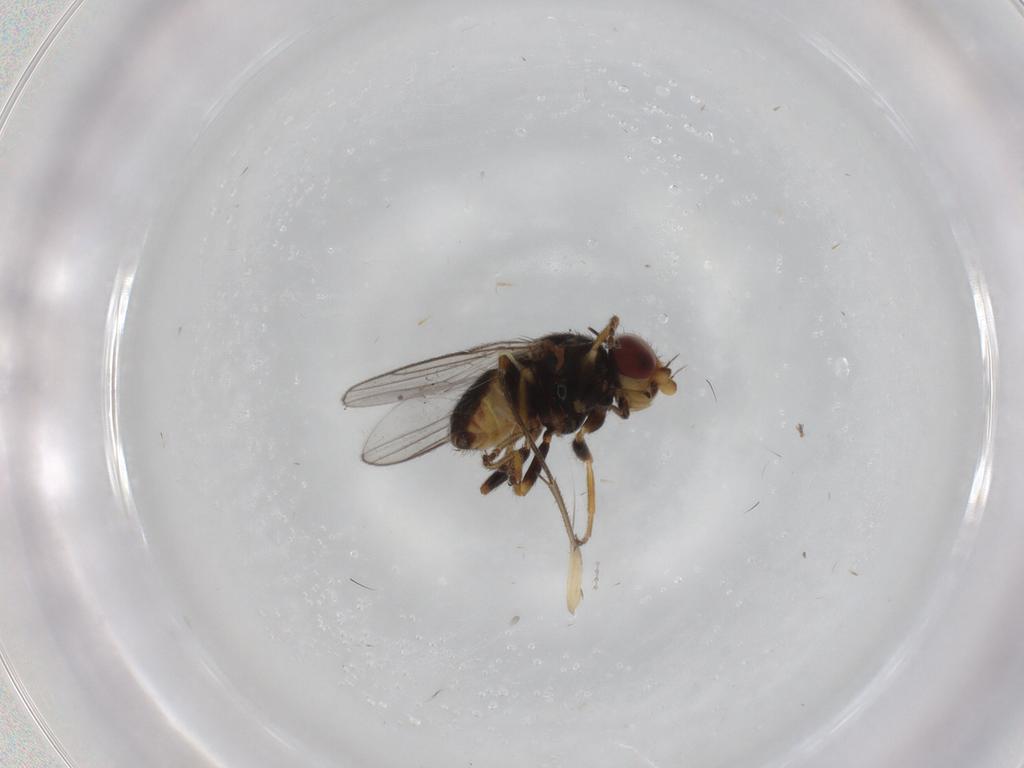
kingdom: Animalia
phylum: Arthropoda
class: Insecta
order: Diptera
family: Chloropidae
